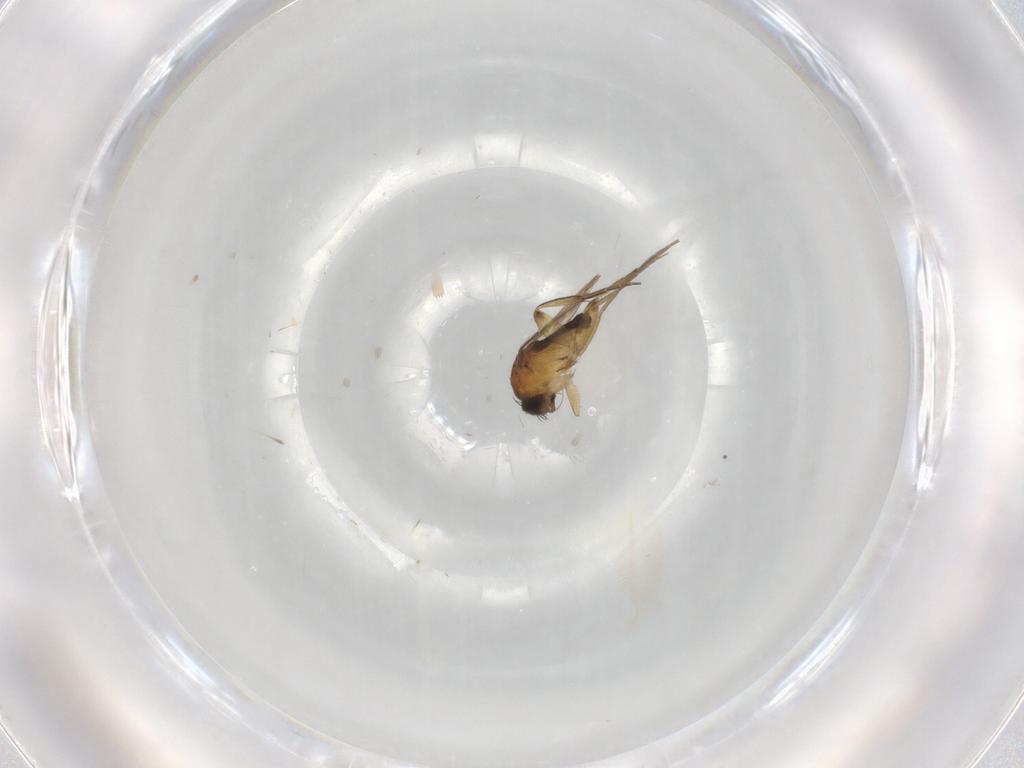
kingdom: Animalia
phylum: Arthropoda
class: Insecta
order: Diptera
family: Phoridae
